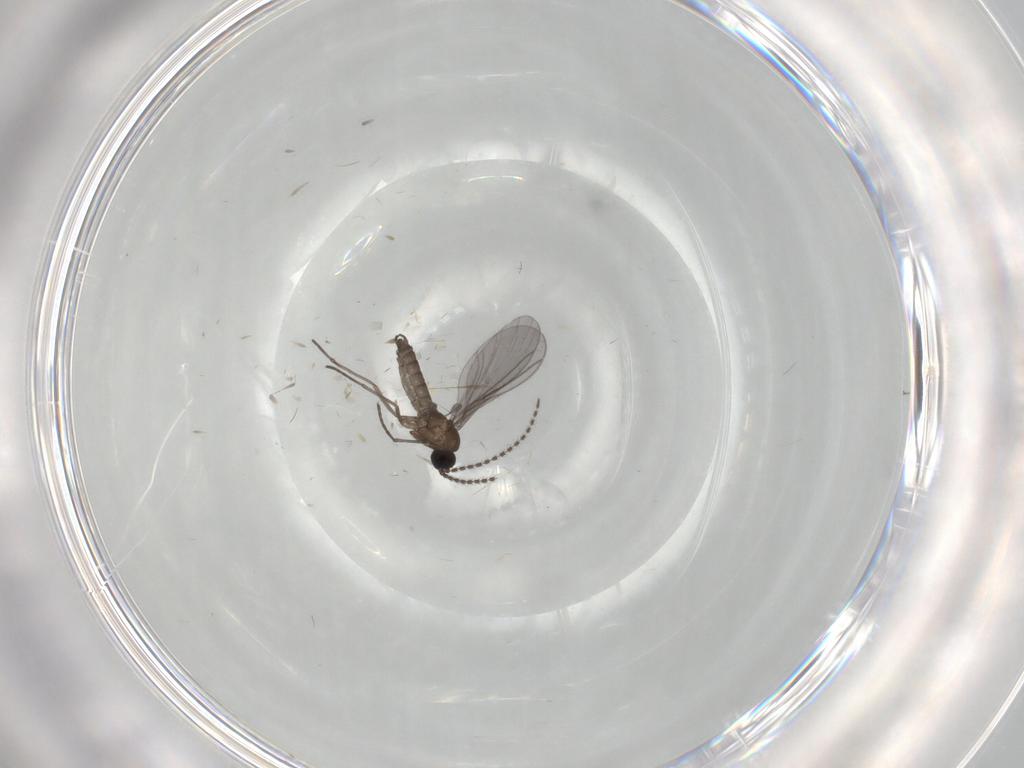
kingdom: Animalia
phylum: Arthropoda
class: Insecta
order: Diptera
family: Sciaridae
